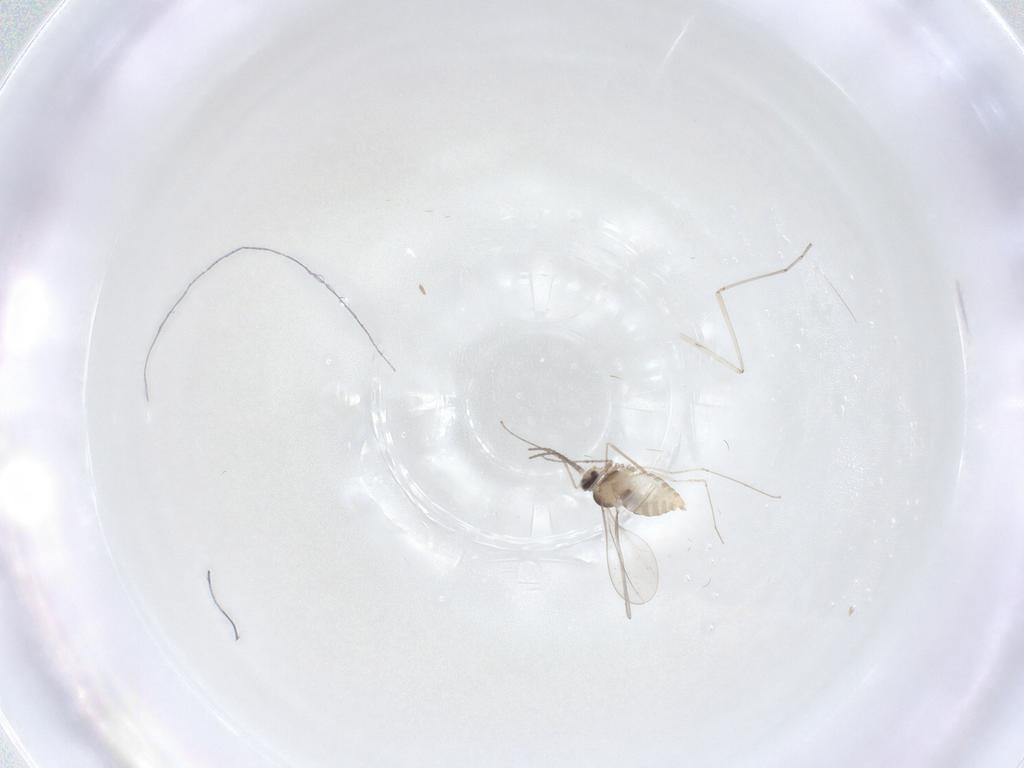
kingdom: Animalia
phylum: Arthropoda
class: Insecta
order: Diptera
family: Cecidomyiidae
